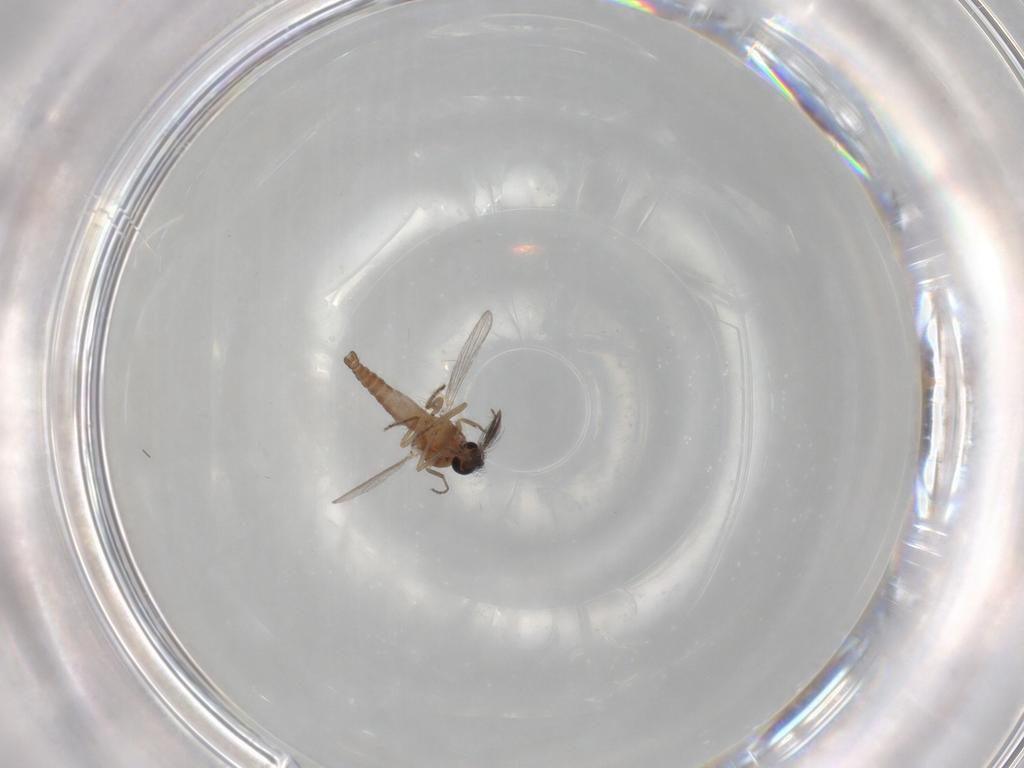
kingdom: Animalia
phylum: Arthropoda
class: Insecta
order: Diptera
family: Ceratopogonidae
